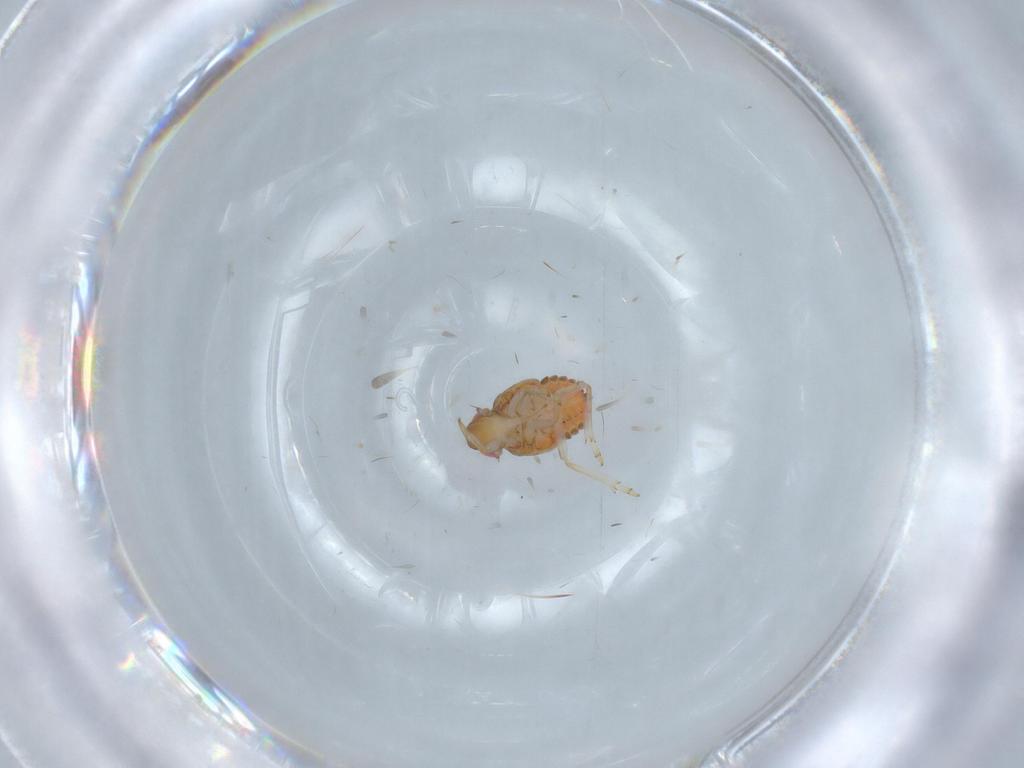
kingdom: Animalia
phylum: Arthropoda
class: Insecta
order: Hemiptera
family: Issidae
